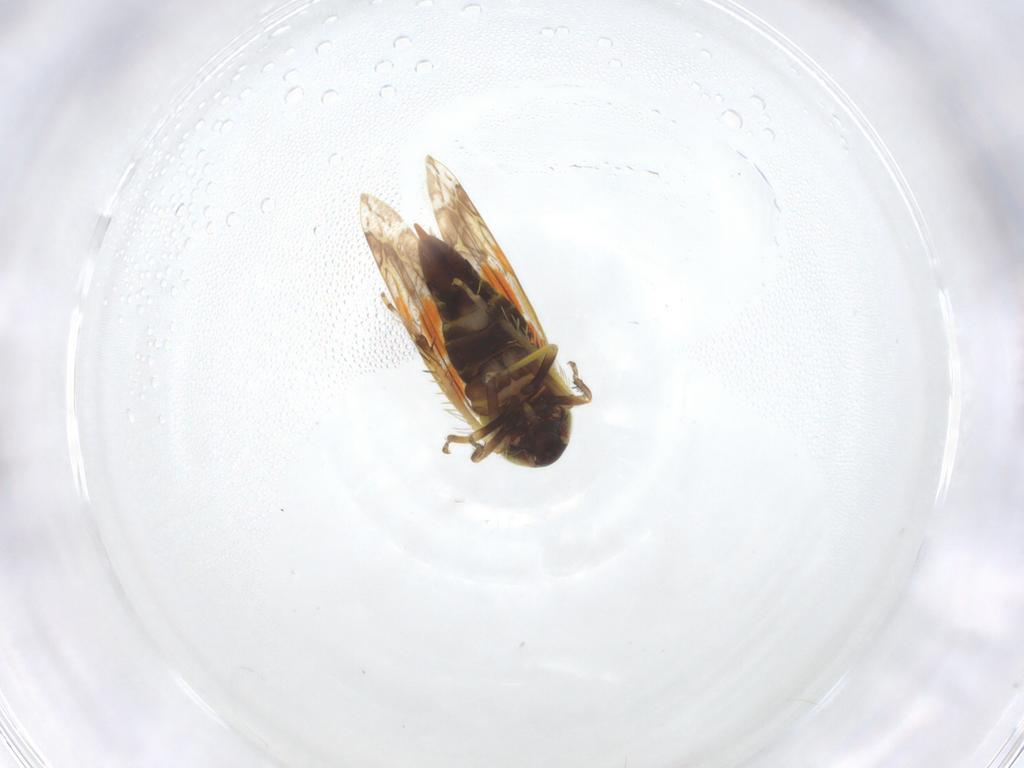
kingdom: Animalia
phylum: Arthropoda
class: Insecta
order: Hemiptera
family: Cicadellidae
